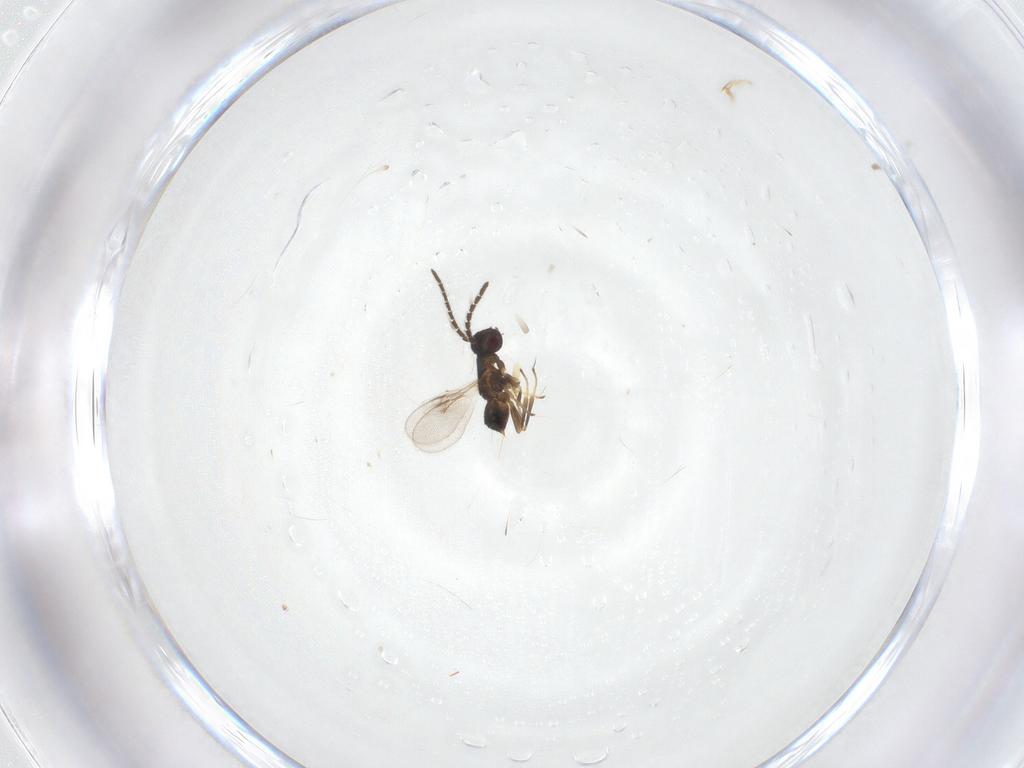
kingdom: Animalia
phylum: Arthropoda
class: Insecta
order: Hymenoptera
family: Encyrtidae
